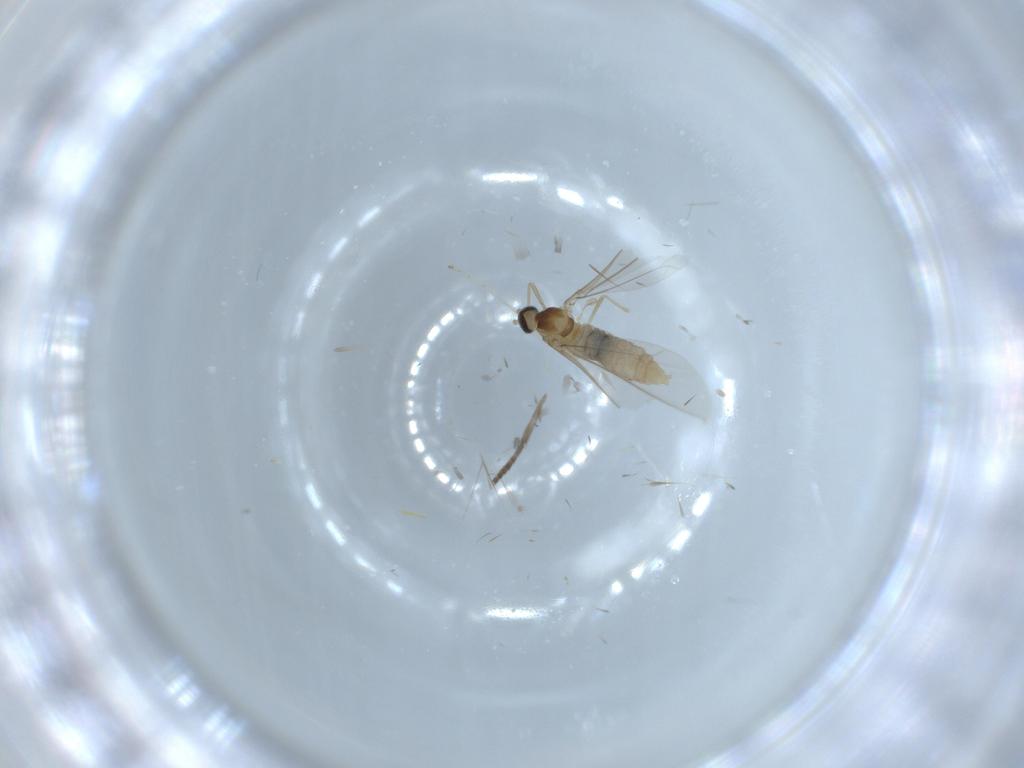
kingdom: Animalia
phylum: Arthropoda
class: Insecta
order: Diptera
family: Cecidomyiidae
